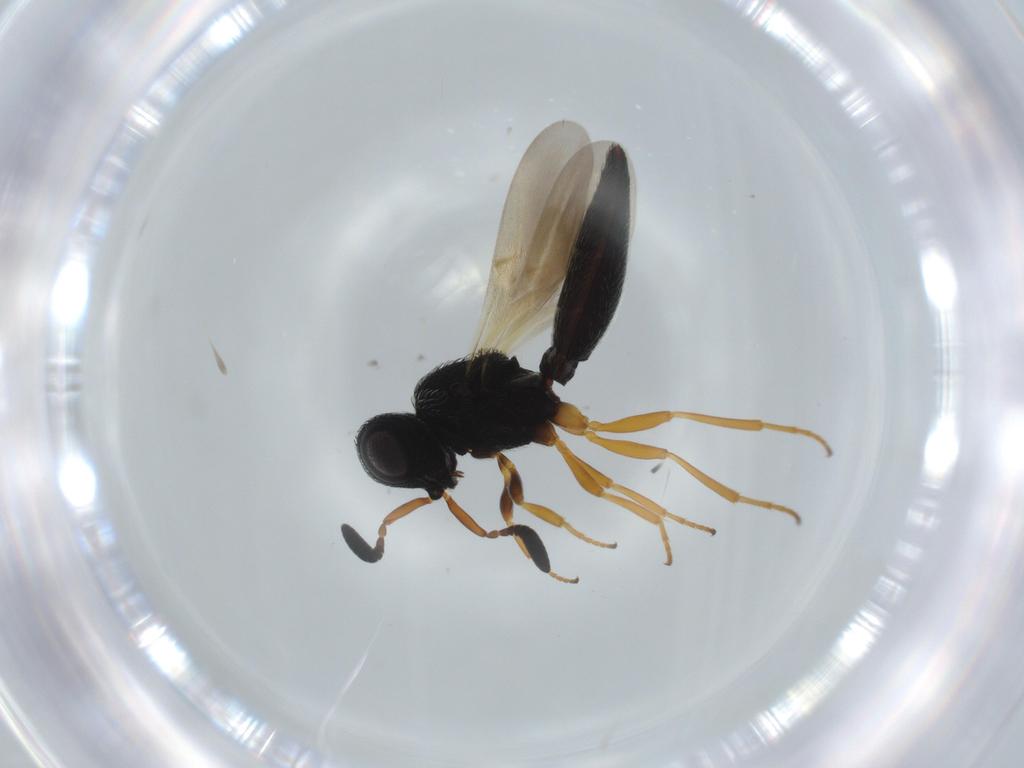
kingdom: Animalia
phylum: Arthropoda
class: Insecta
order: Hymenoptera
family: Scelionidae
